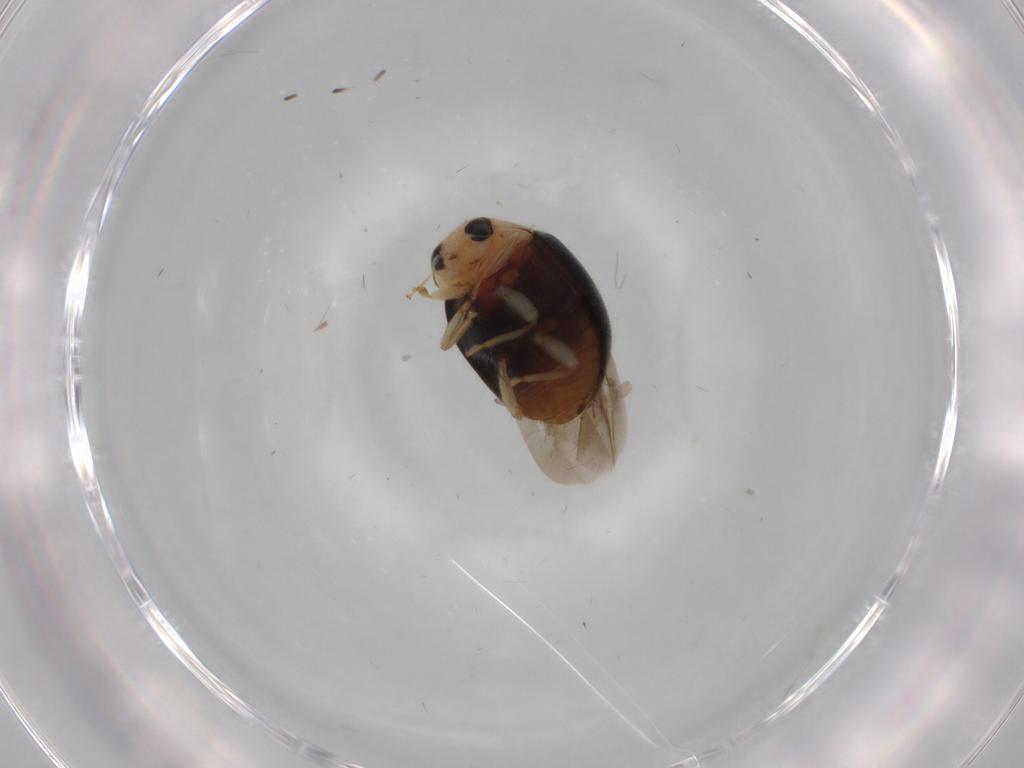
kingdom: Animalia
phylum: Arthropoda
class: Insecta
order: Coleoptera
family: Coccinellidae
